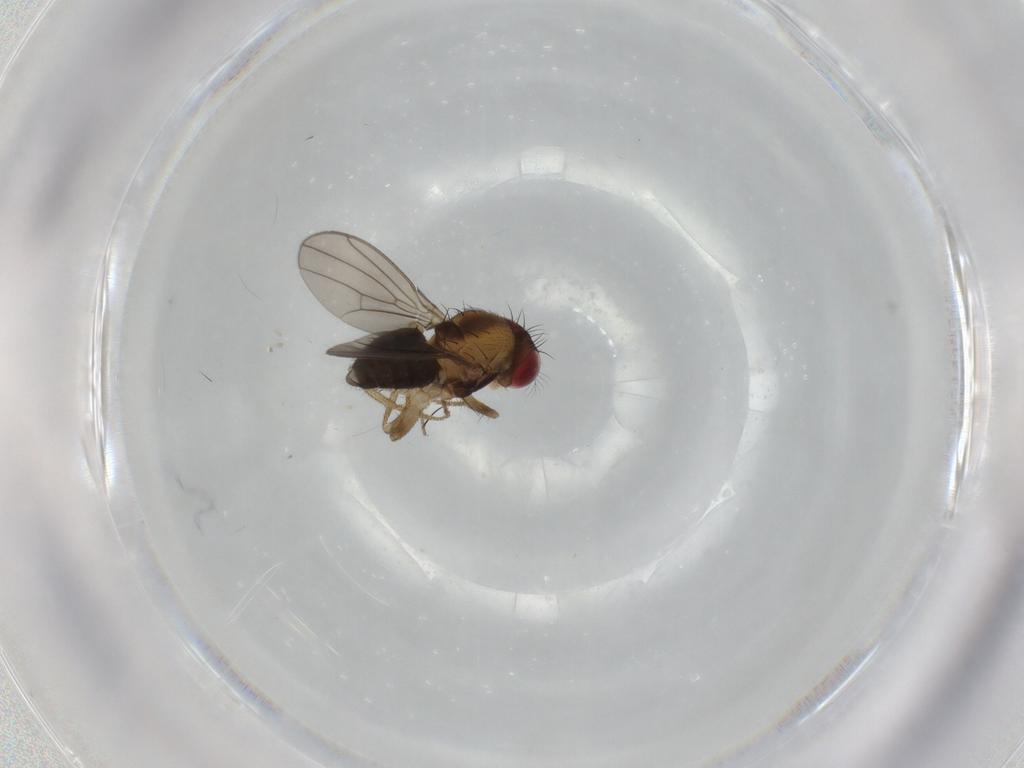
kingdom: Animalia
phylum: Arthropoda
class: Insecta
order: Diptera
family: Drosophilidae
